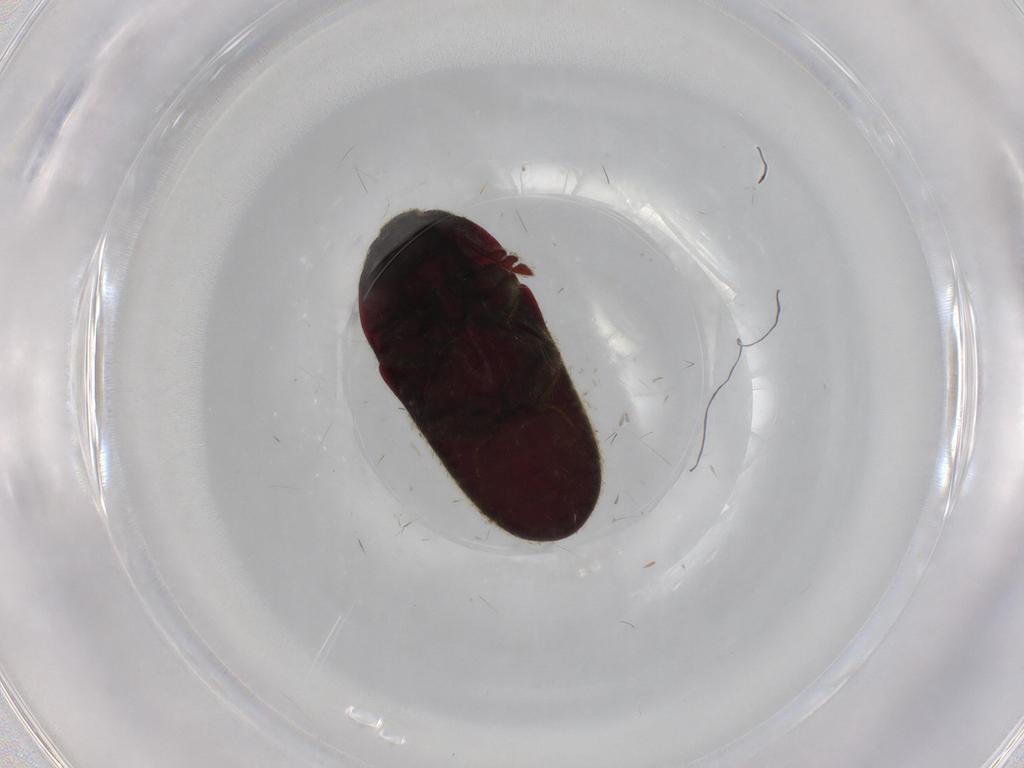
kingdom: Animalia
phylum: Arthropoda
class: Insecta
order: Coleoptera
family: Throscidae
